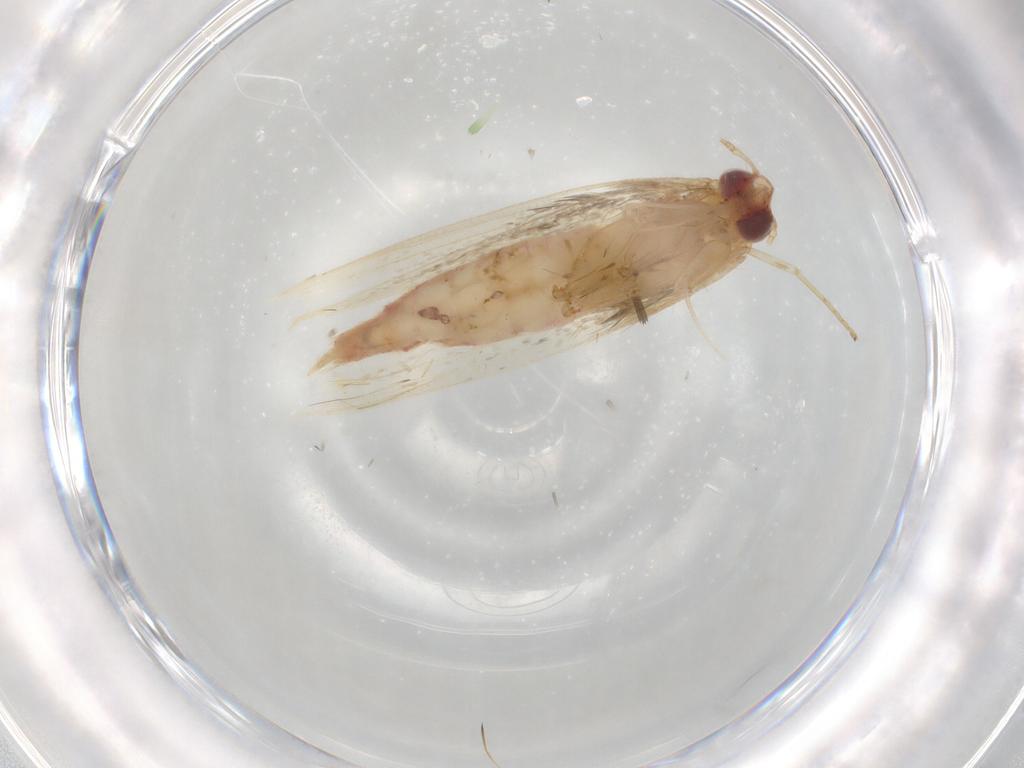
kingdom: Animalia
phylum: Arthropoda
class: Insecta
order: Lepidoptera
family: Cosmopterigidae
